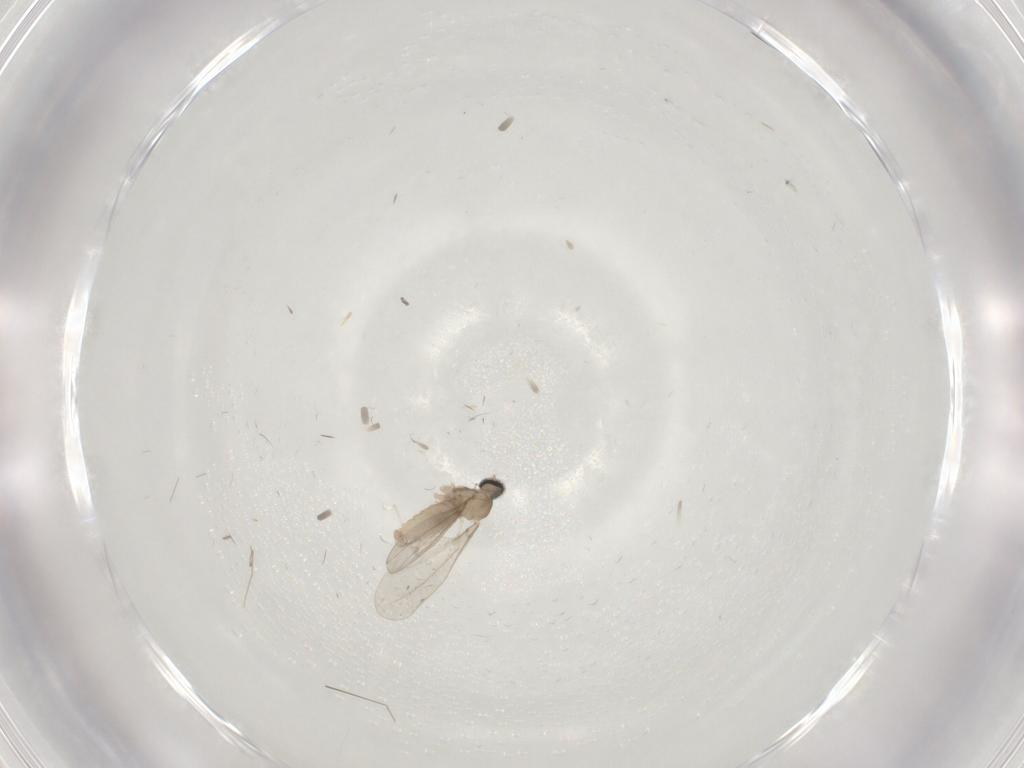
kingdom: Animalia
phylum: Arthropoda
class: Insecta
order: Diptera
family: Cecidomyiidae
